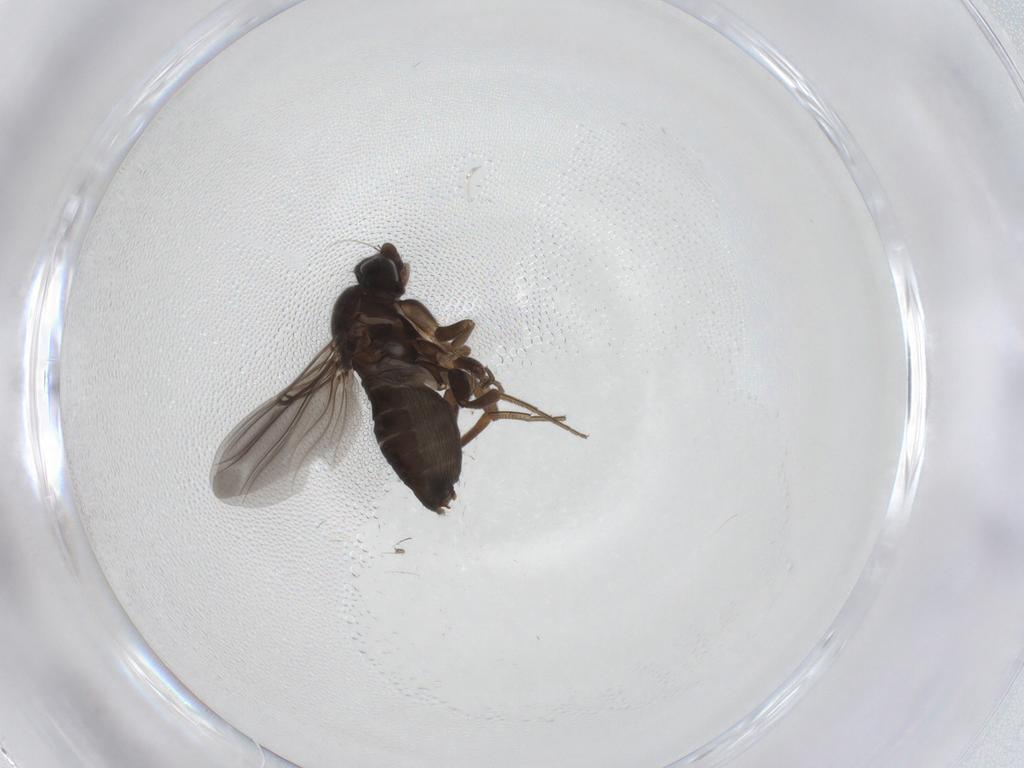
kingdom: Animalia
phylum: Arthropoda
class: Insecta
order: Diptera
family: Phoridae
